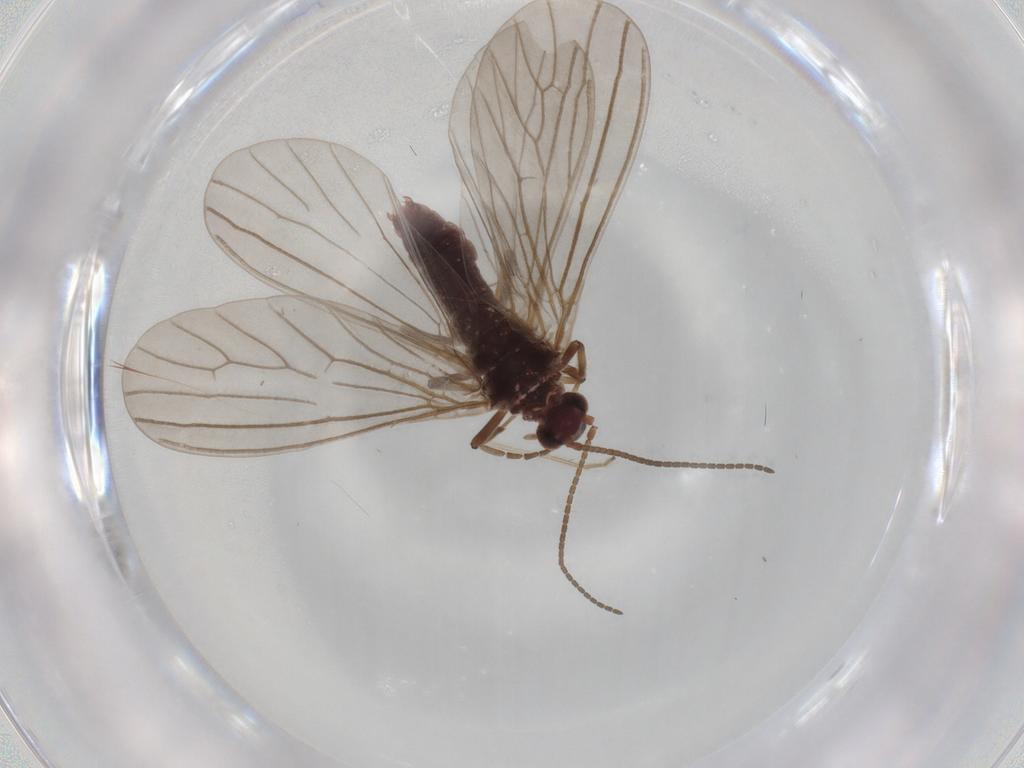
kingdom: Animalia
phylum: Arthropoda
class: Insecta
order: Neuroptera
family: Coniopterygidae
